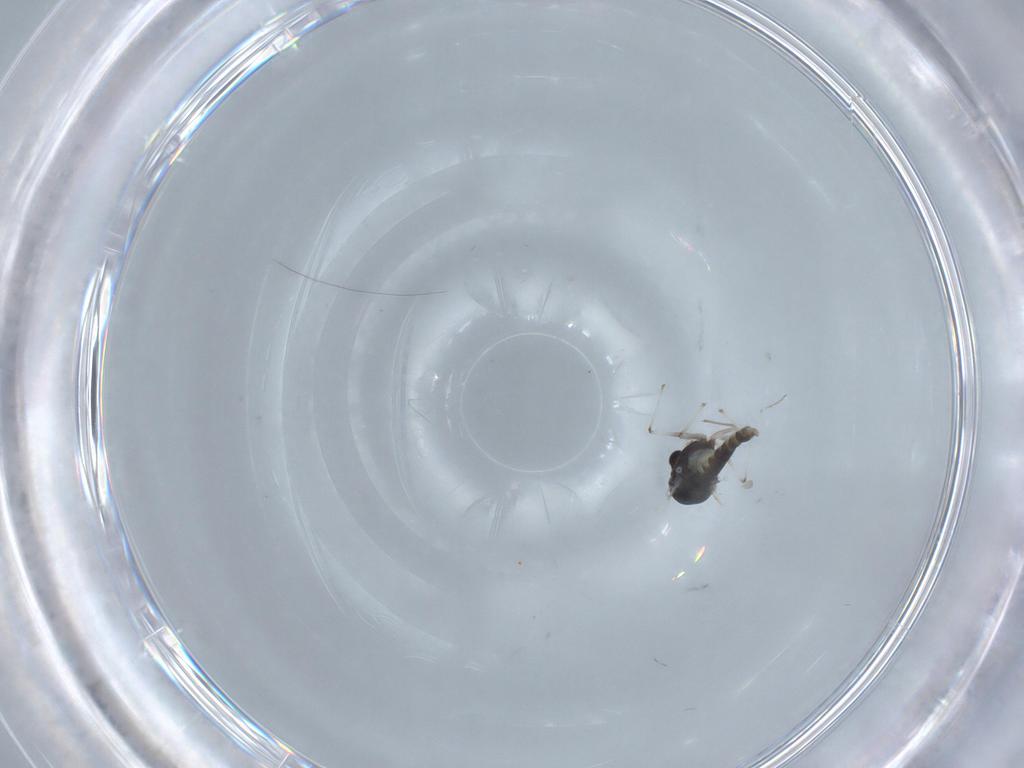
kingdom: Animalia
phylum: Arthropoda
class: Insecta
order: Diptera
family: Chironomidae
